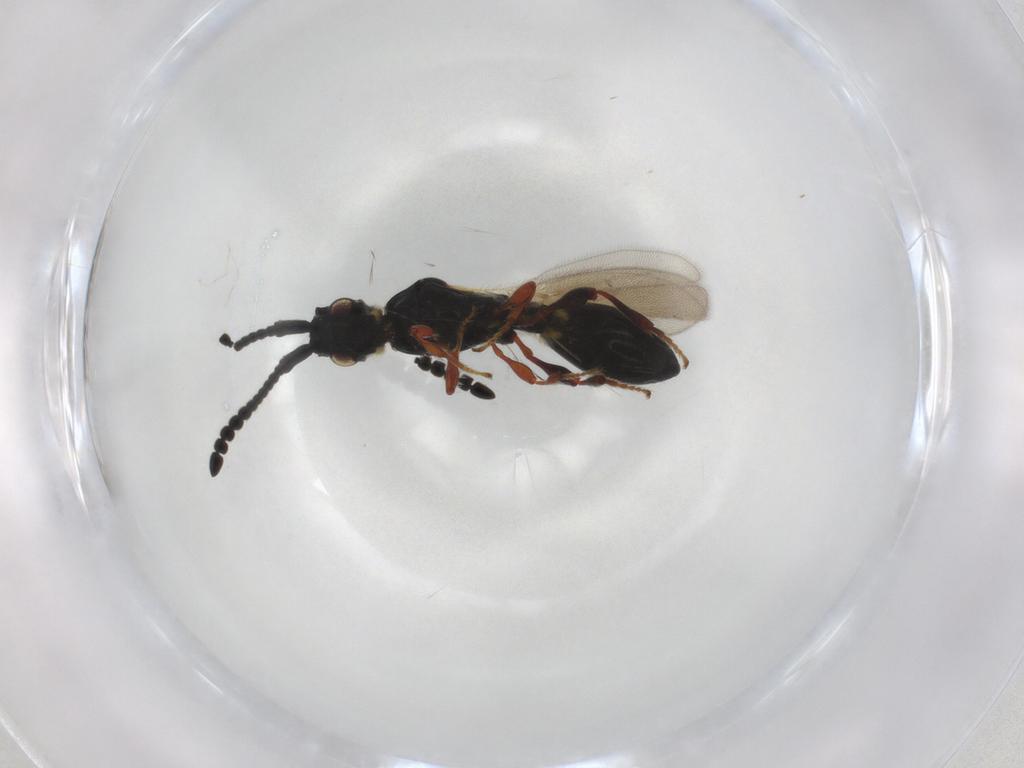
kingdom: Animalia
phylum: Arthropoda
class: Insecta
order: Hymenoptera
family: Diapriidae
